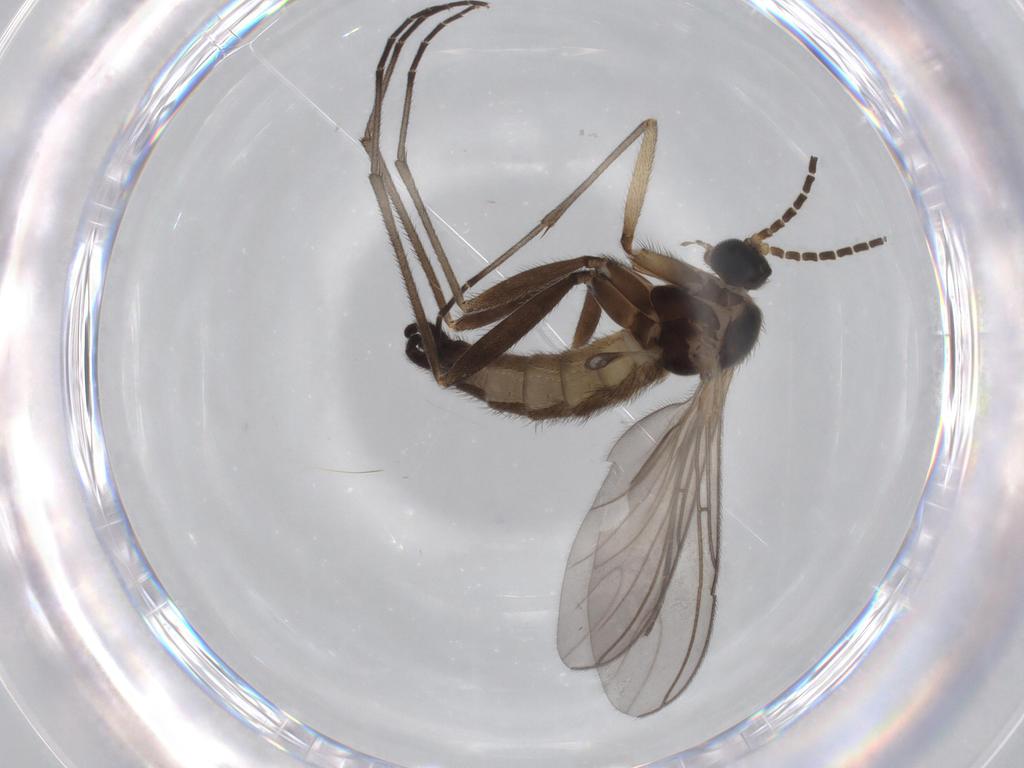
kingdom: Animalia
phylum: Arthropoda
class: Insecta
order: Diptera
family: Sciaridae
